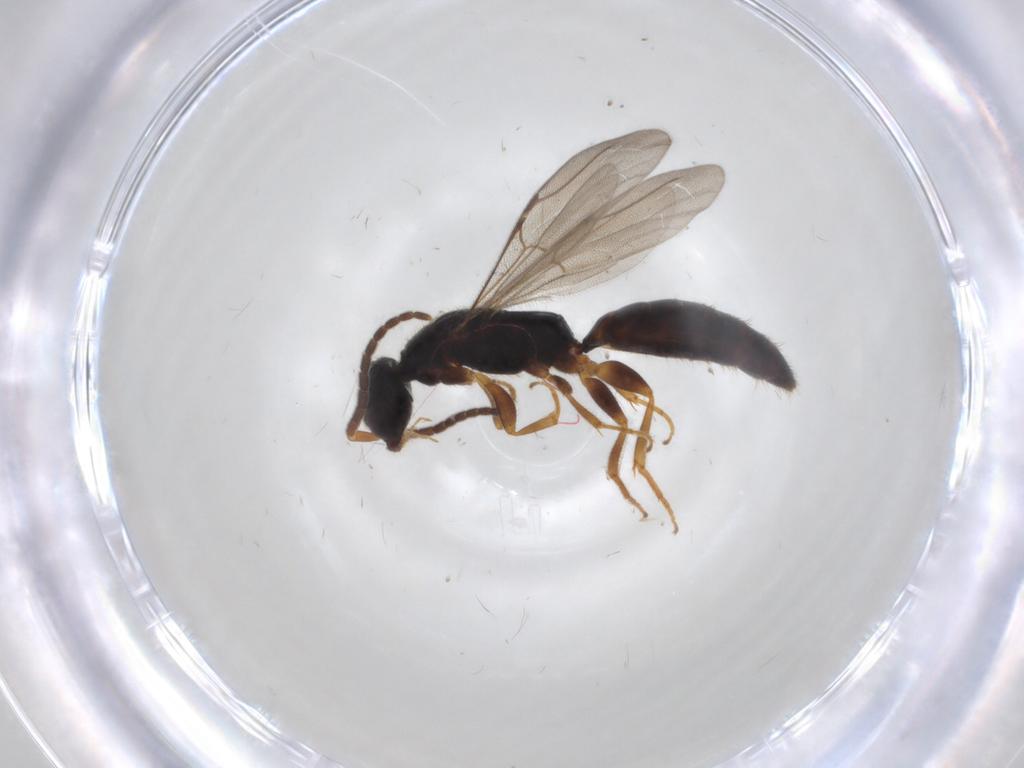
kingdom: Animalia
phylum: Arthropoda
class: Insecta
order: Hymenoptera
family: Bethylidae
